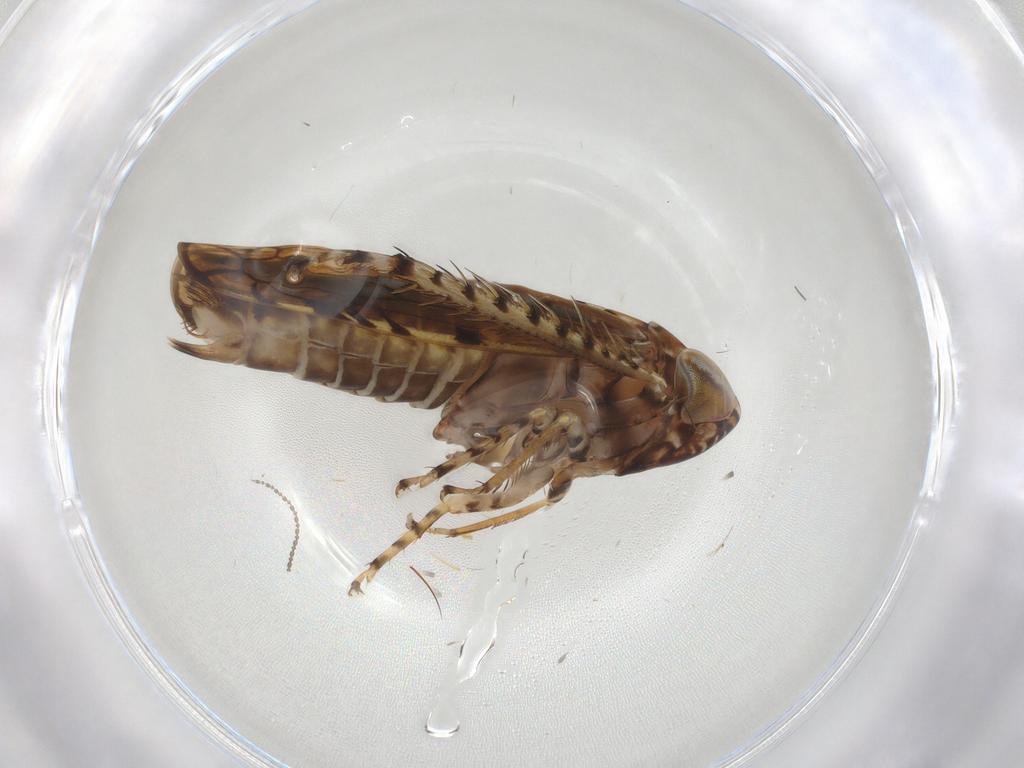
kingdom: Animalia
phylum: Arthropoda
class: Insecta
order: Hemiptera
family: Cicadellidae
